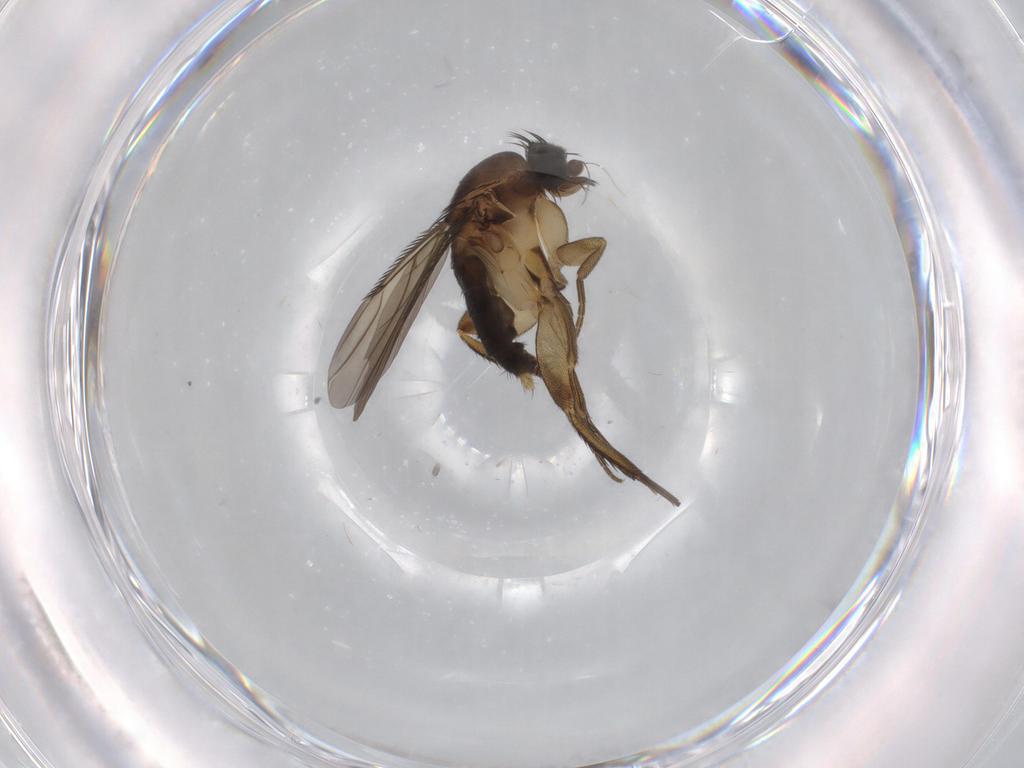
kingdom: Animalia
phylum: Arthropoda
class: Insecta
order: Diptera
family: Phoridae
